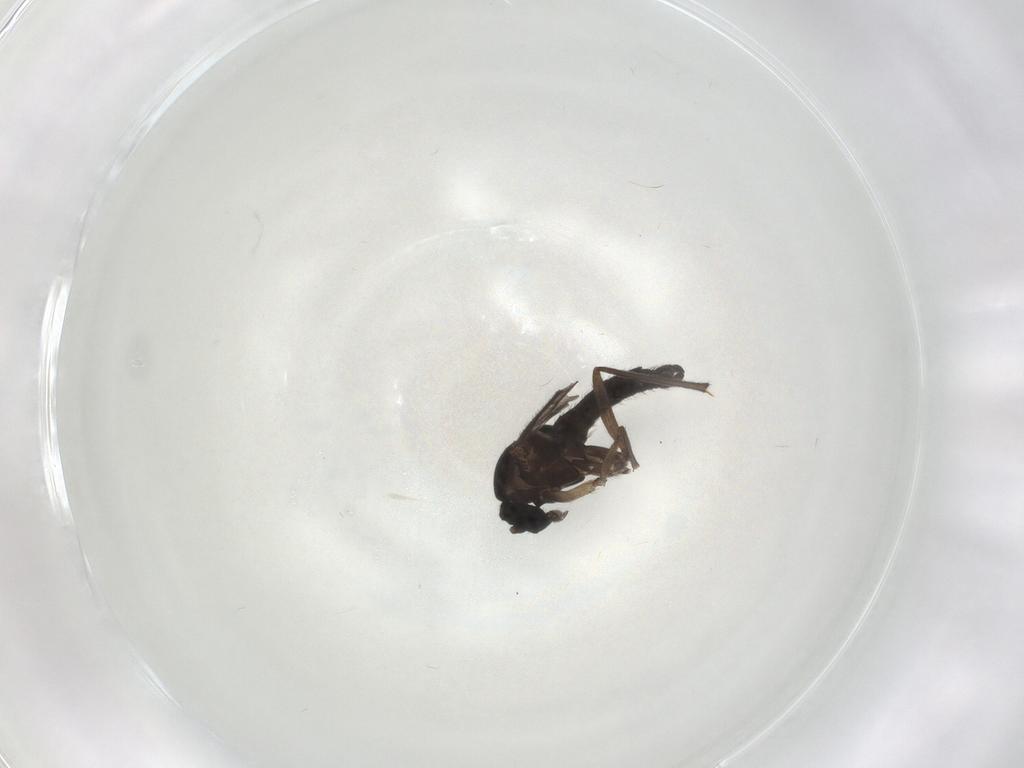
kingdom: Animalia
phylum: Arthropoda
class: Insecta
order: Diptera
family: Sciaridae
